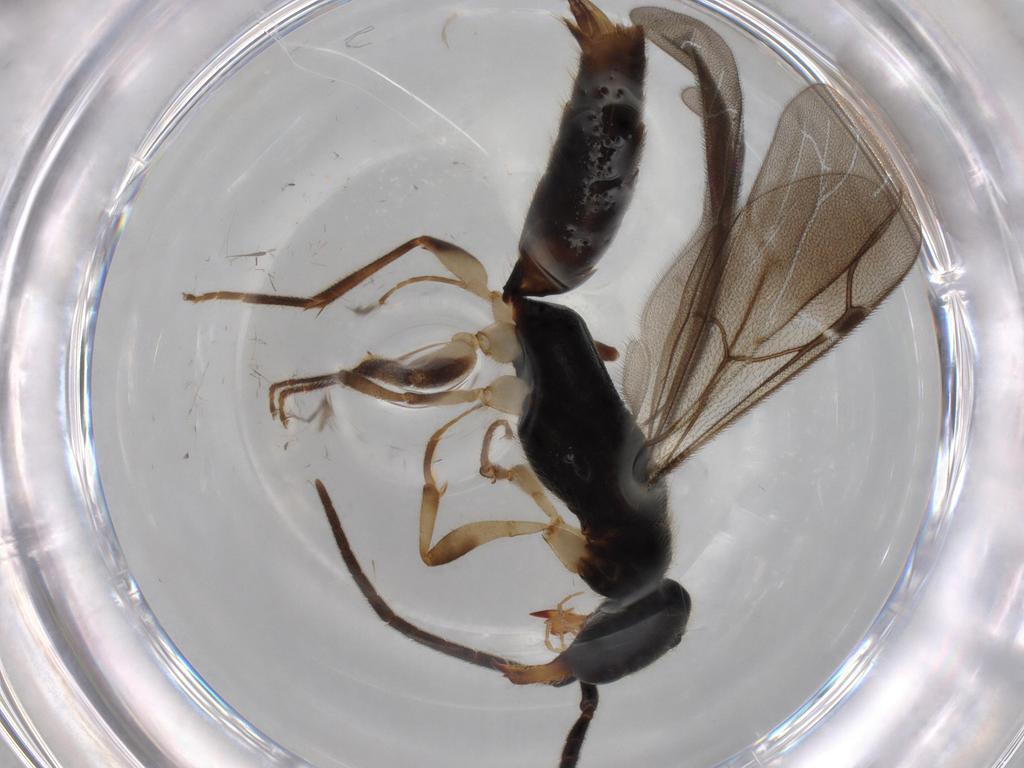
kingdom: Animalia
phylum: Arthropoda
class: Insecta
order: Hymenoptera
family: Bethylidae
